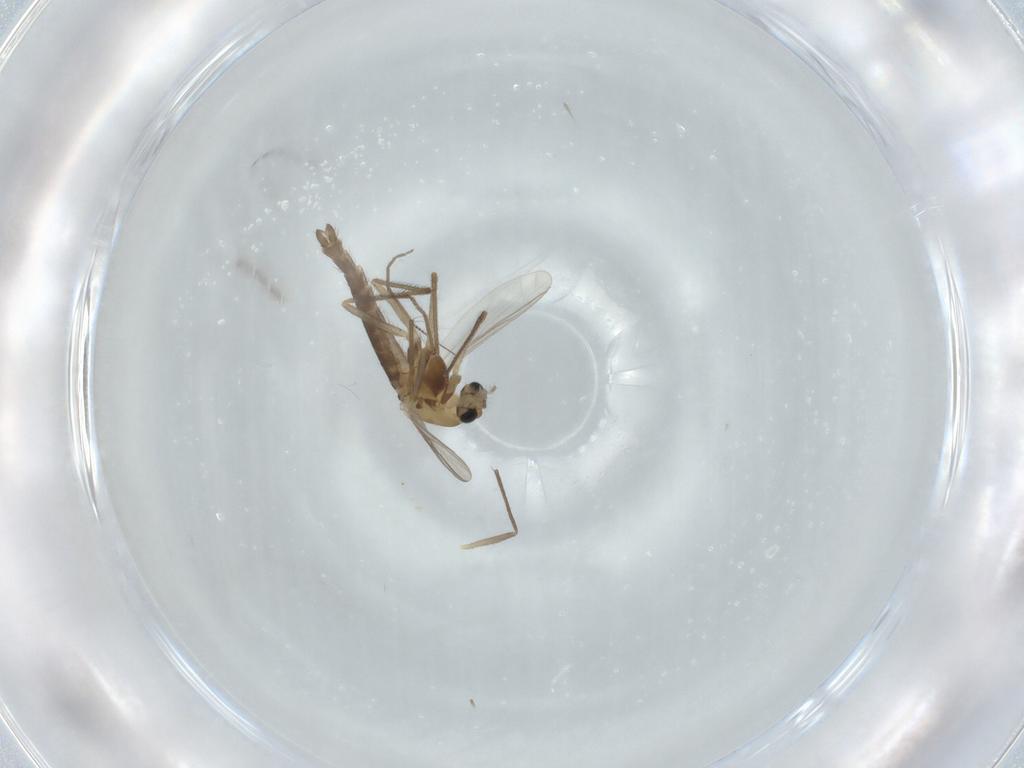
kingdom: Animalia
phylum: Arthropoda
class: Insecta
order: Diptera
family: Chironomidae
